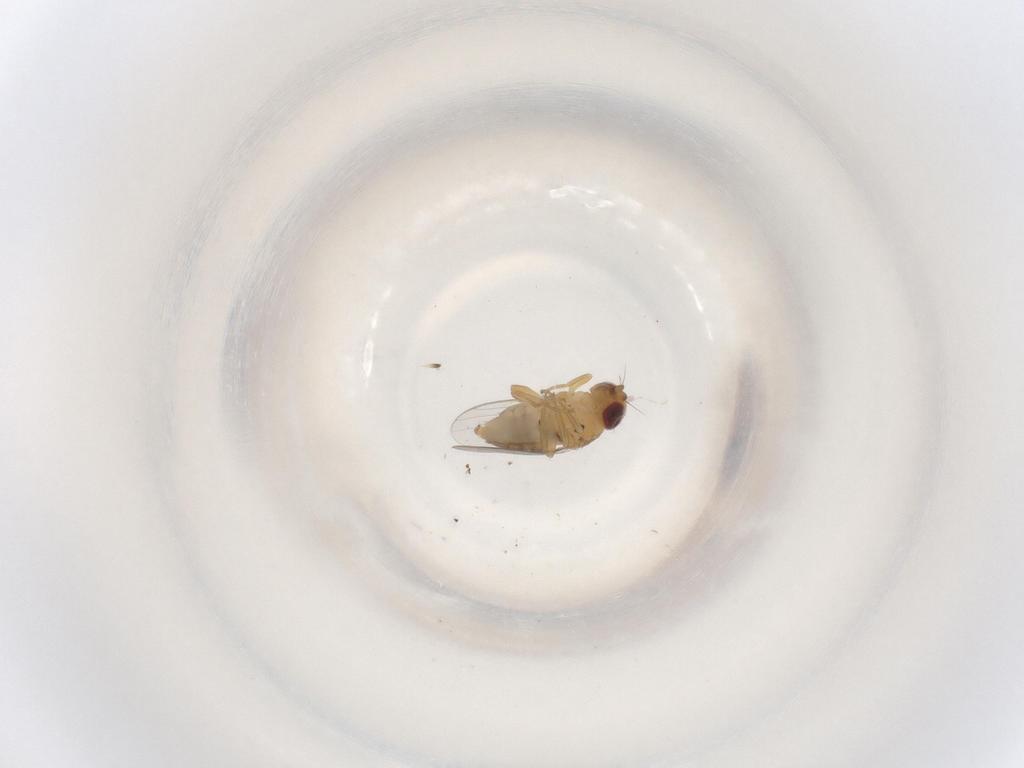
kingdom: Animalia
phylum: Arthropoda
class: Insecta
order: Diptera
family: Chloropidae
